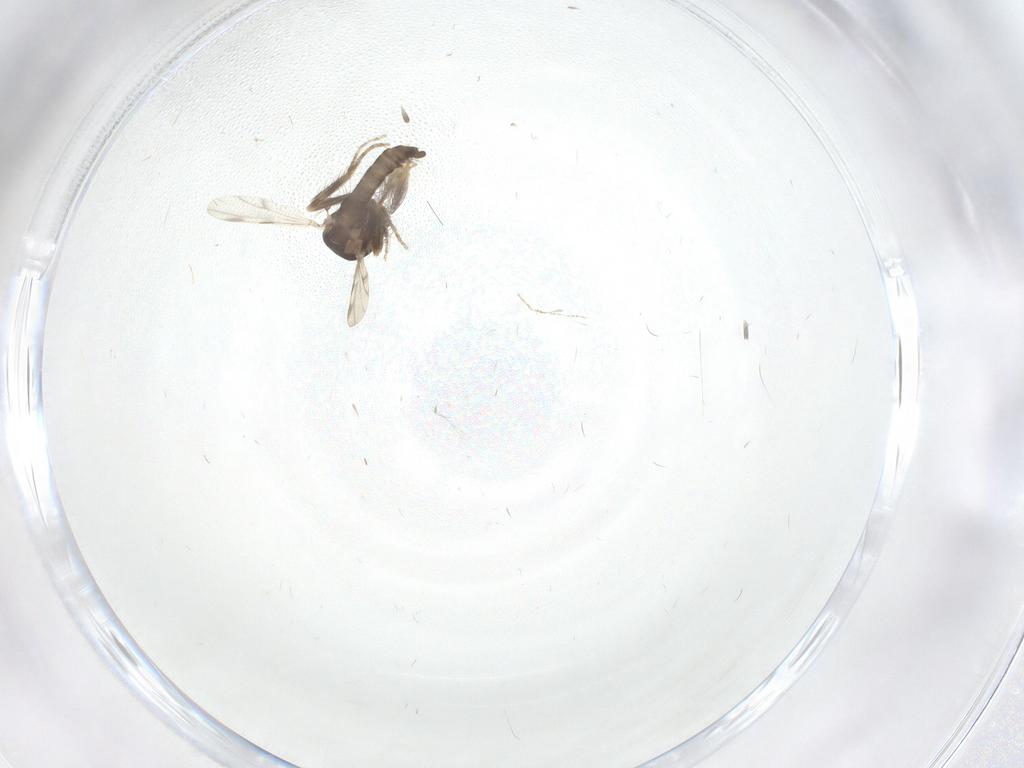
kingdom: Animalia
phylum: Arthropoda
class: Insecta
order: Diptera
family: Ceratopogonidae
